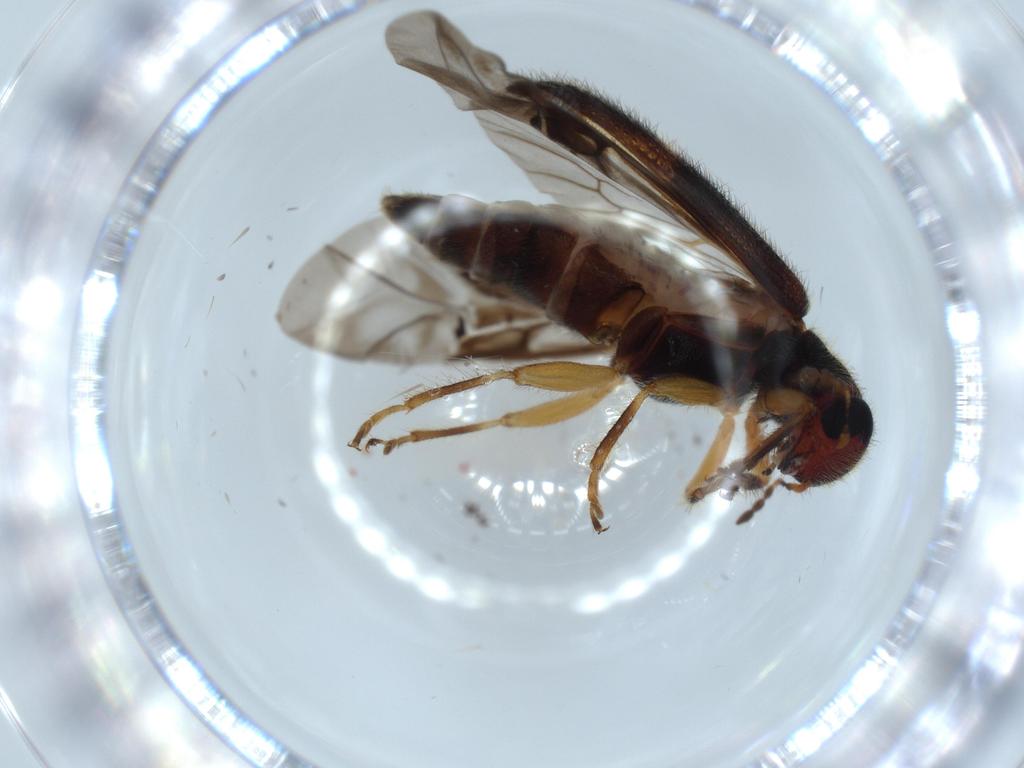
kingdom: Animalia
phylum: Arthropoda
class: Insecta
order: Coleoptera
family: Cleridae
